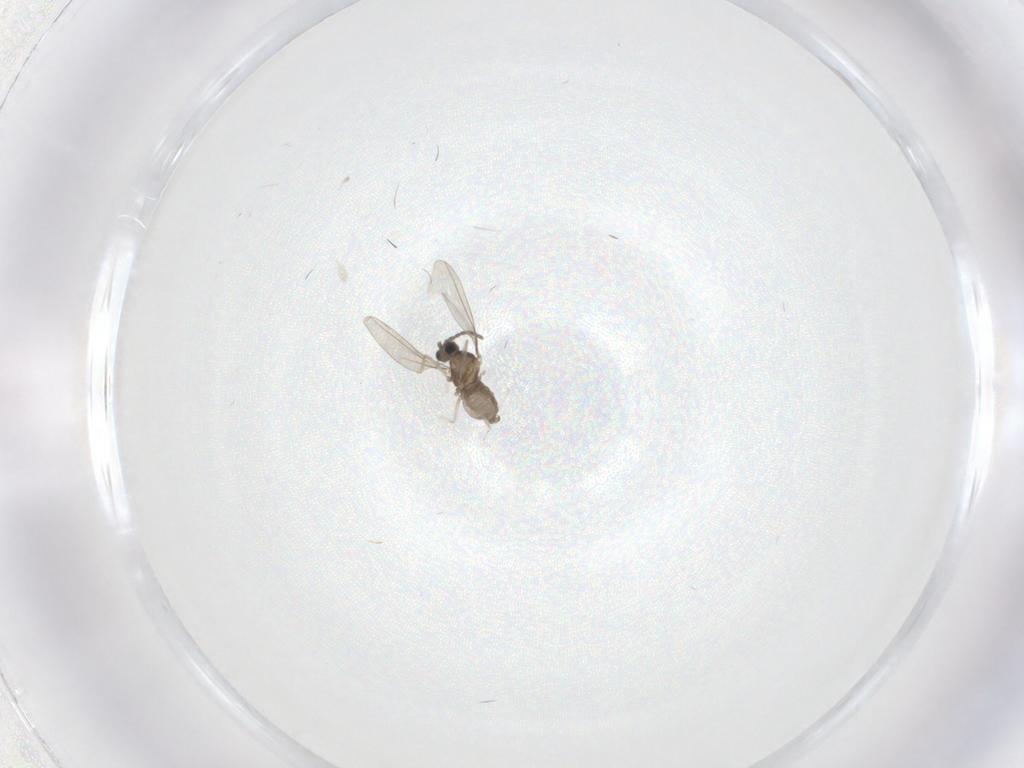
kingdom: Animalia
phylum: Arthropoda
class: Insecta
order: Diptera
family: Cecidomyiidae
